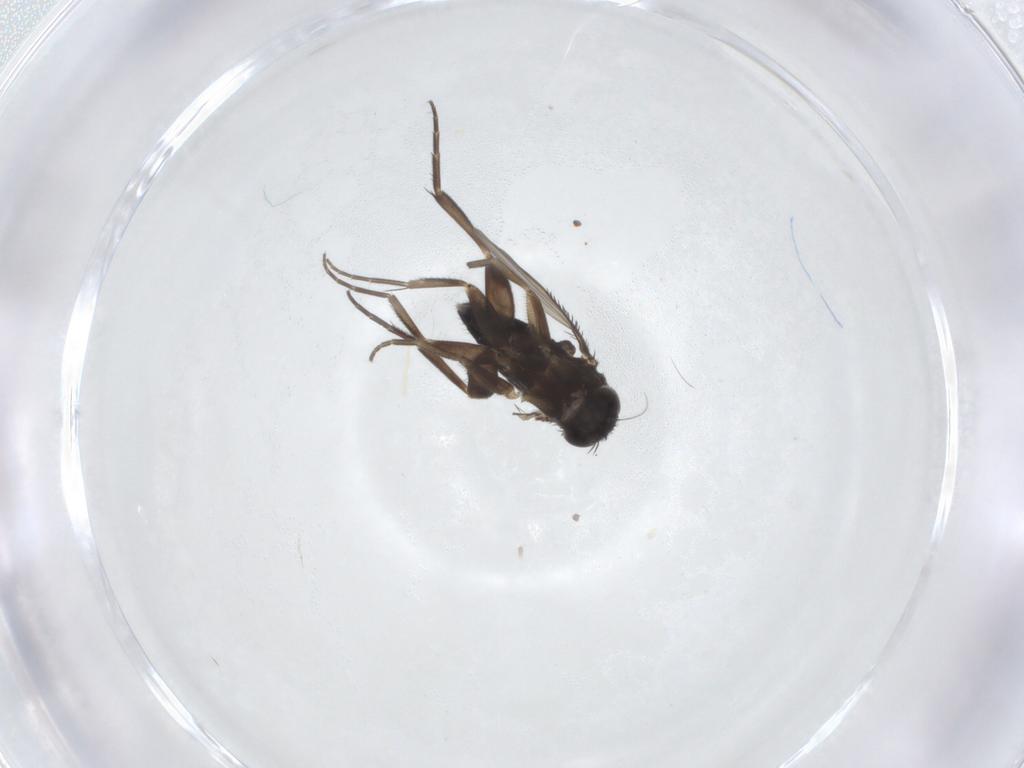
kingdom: Animalia
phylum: Arthropoda
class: Insecta
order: Diptera
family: Phoridae
